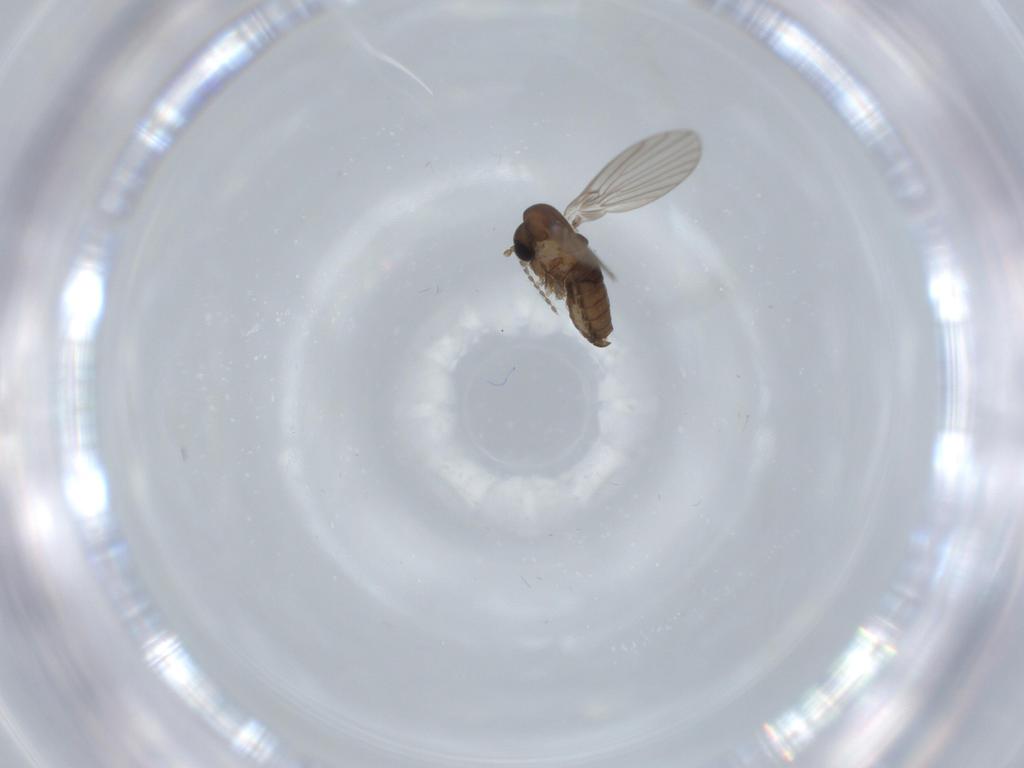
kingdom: Animalia
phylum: Arthropoda
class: Insecta
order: Diptera
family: Psychodidae
